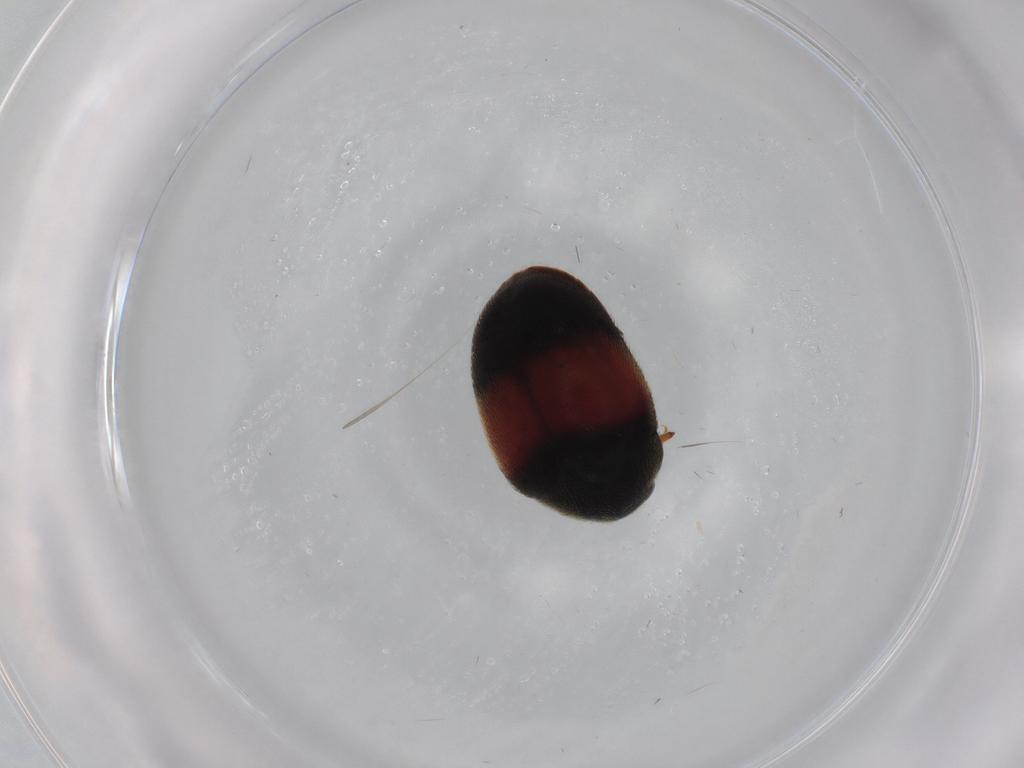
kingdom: Animalia
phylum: Arthropoda
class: Insecta
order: Coleoptera
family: Dermestidae
